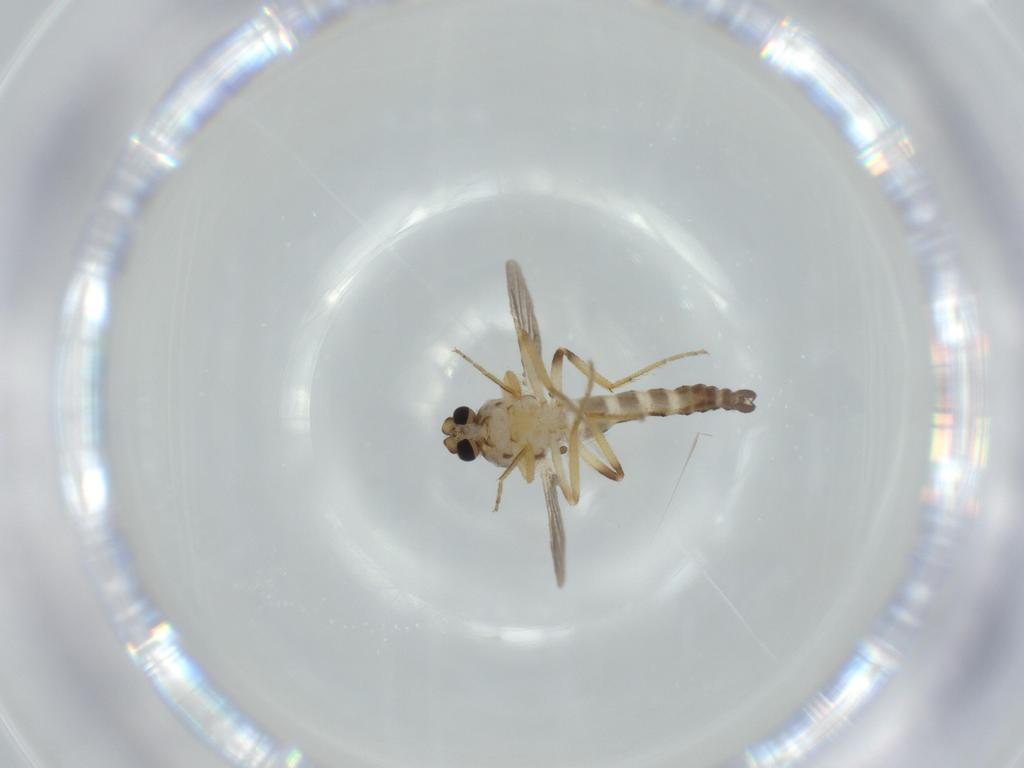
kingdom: Animalia
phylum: Arthropoda
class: Insecta
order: Diptera
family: Ceratopogonidae
